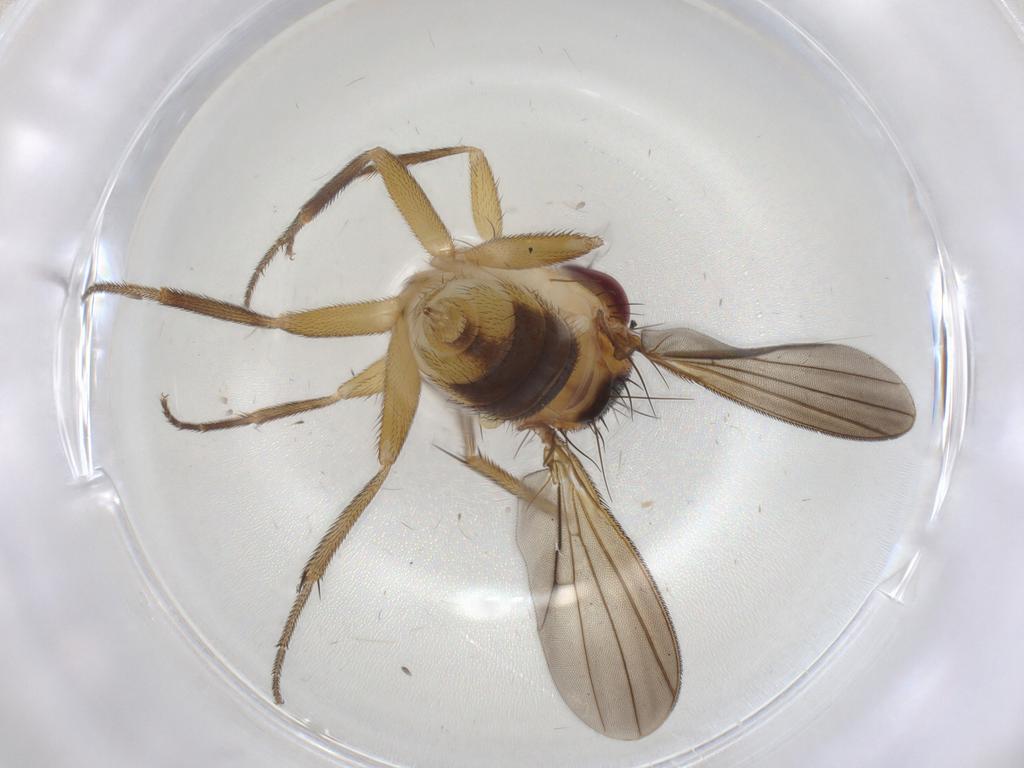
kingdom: Animalia
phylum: Arthropoda
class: Insecta
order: Diptera
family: Clusiidae
